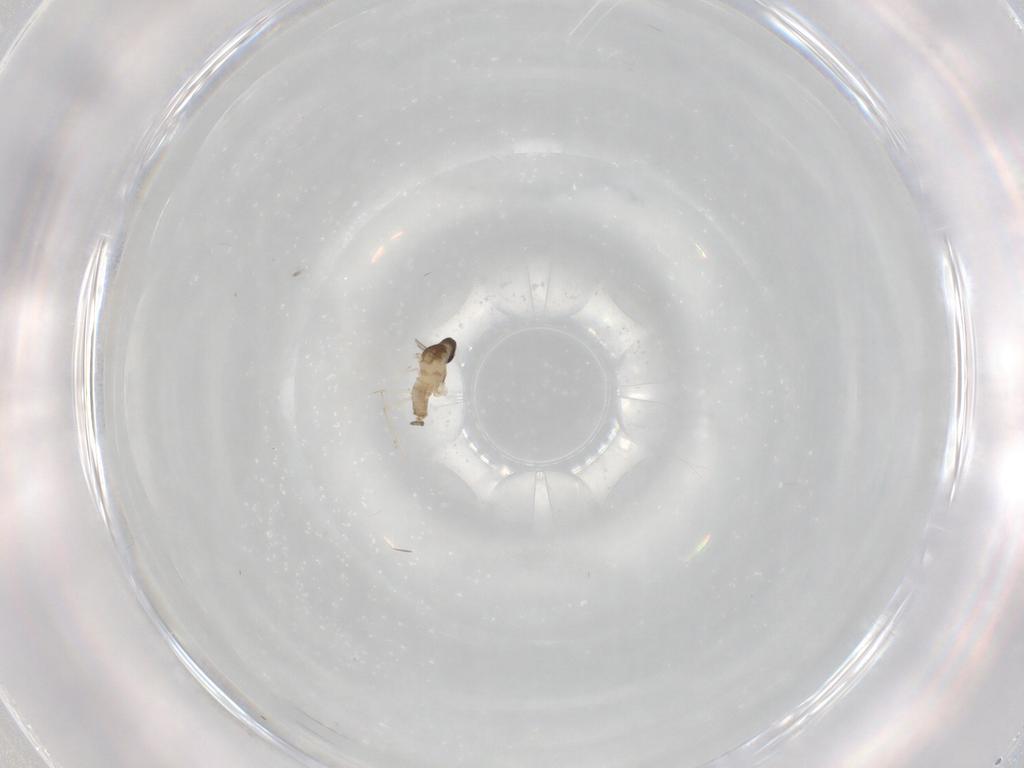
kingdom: Animalia
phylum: Arthropoda
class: Insecta
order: Diptera
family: Cecidomyiidae
